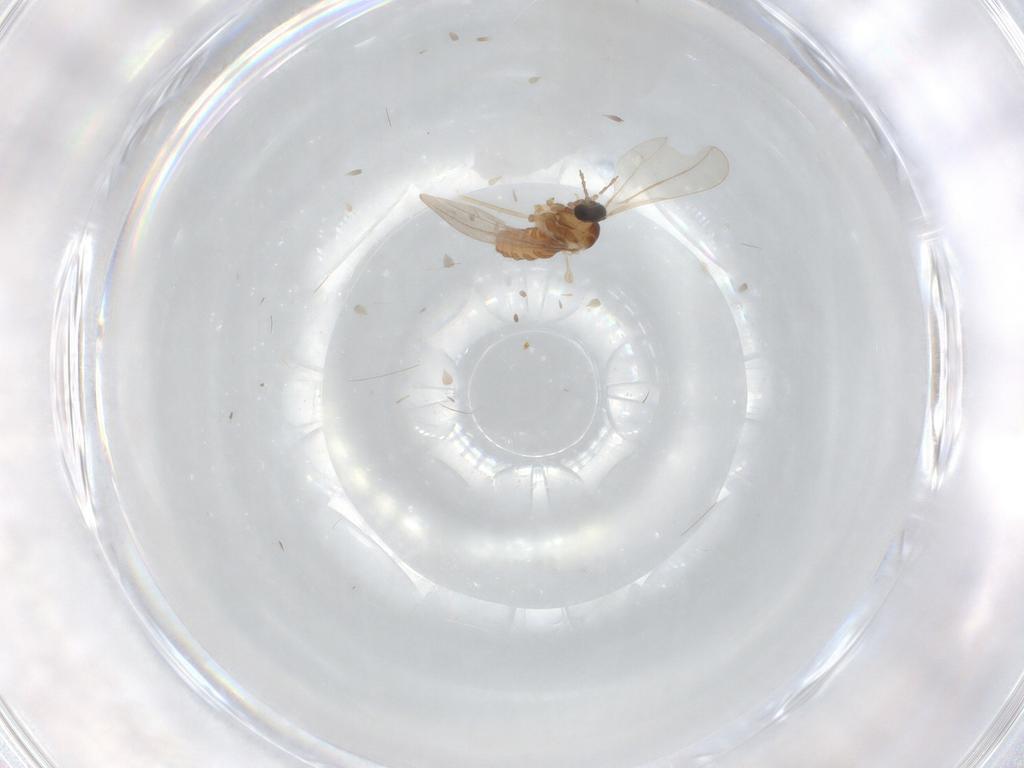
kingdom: Animalia
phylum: Arthropoda
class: Insecta
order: Diptera
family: Cecidomyiidae
